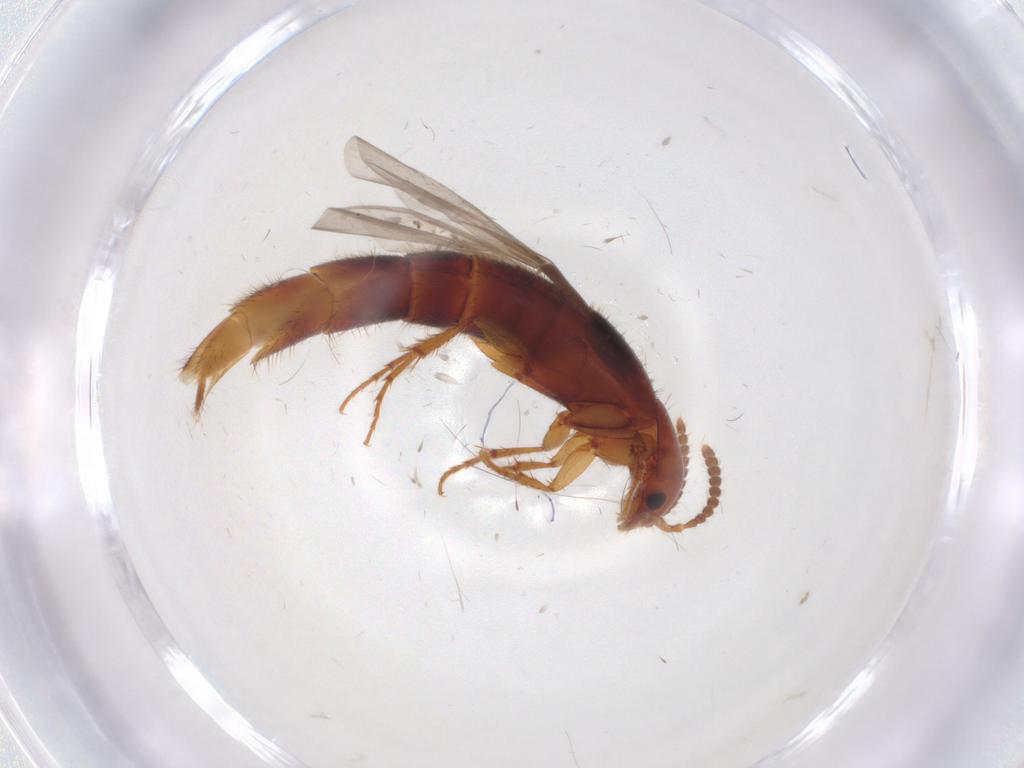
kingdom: Animalia
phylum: Arthropoda
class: Insecta
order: Coleoptera
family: Staphylinidae
